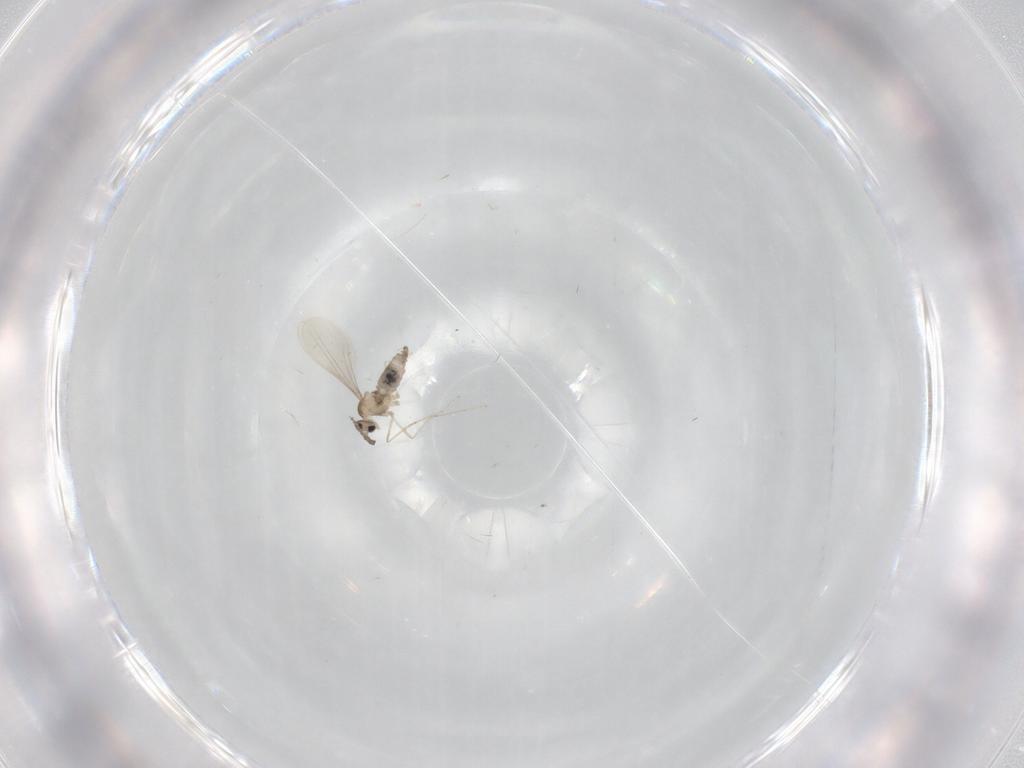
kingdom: Animalia
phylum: Arthropoda
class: Insecta
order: Diptera
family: Cecidomyiidae
